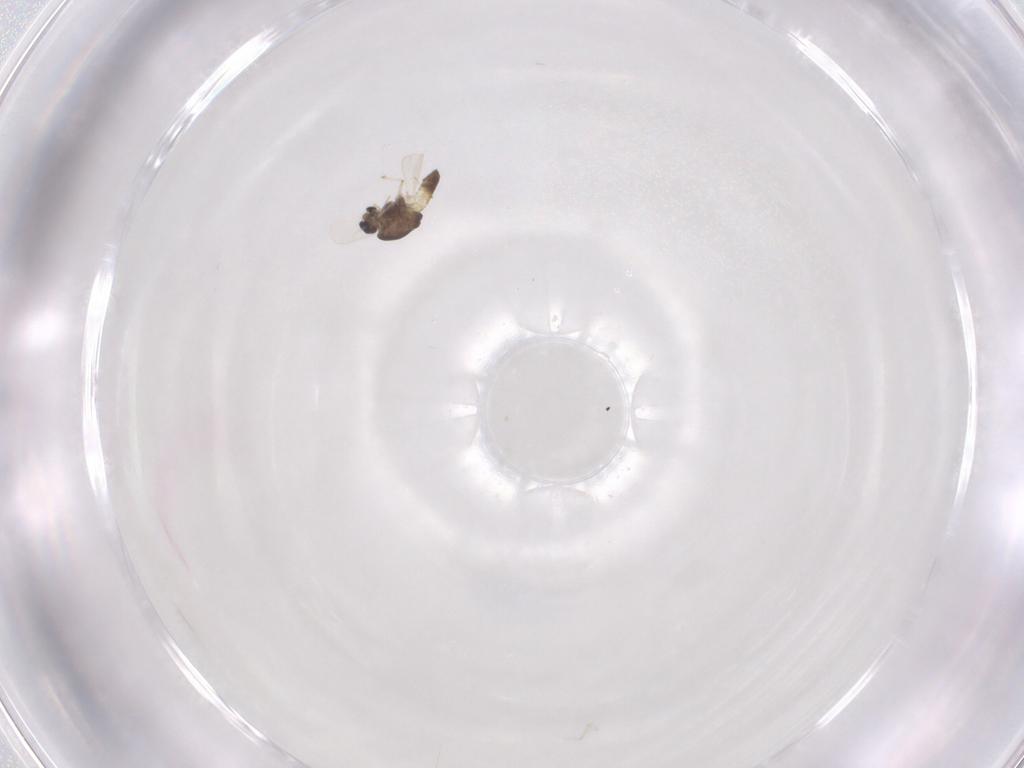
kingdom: Animalia
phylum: Arthropoda
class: Insecta
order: Diptera
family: Chironomidae
